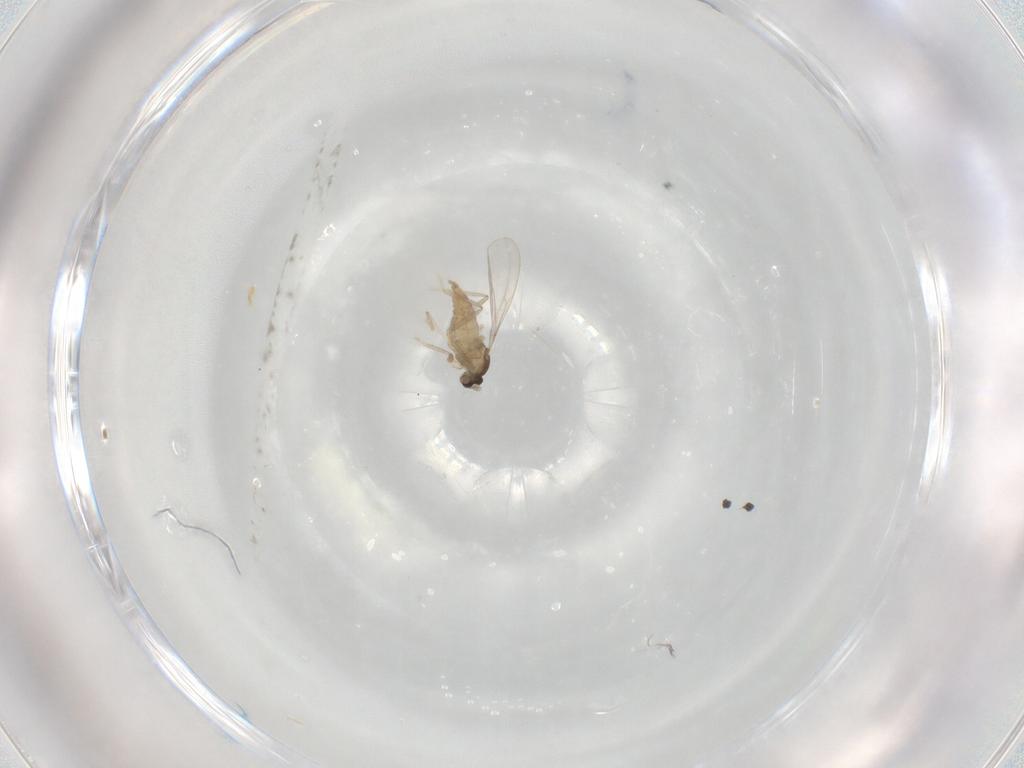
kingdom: Animalia
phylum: Arthropoda
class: Insecta
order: Diptera
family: Cecidomyiidae
